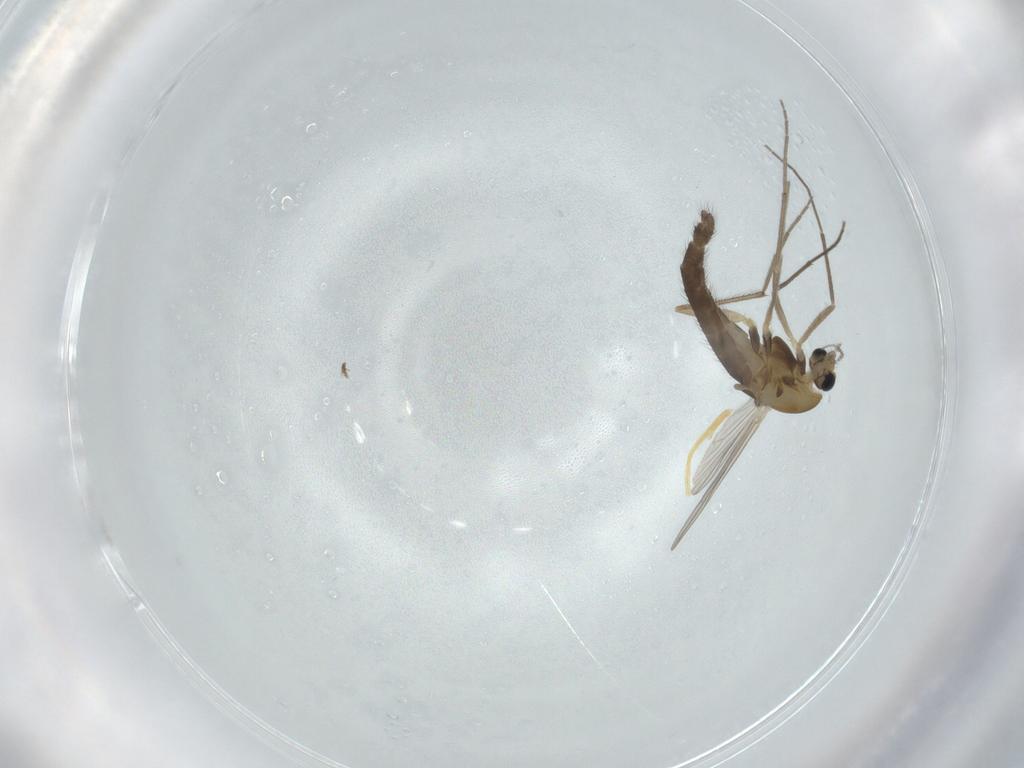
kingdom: Animalia
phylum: Arthropoda
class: Insecta
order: Diptera
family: Chironomidae
